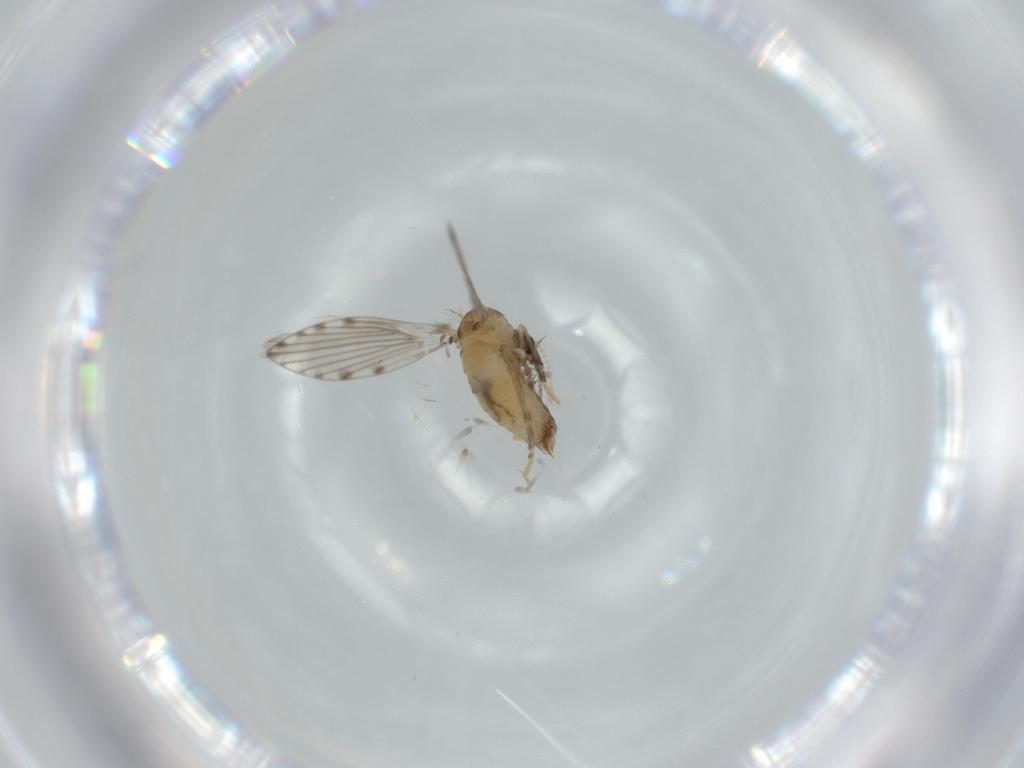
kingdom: Animalia
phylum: Arthropoda
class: Insecta
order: Diptera
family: Psychodidae
